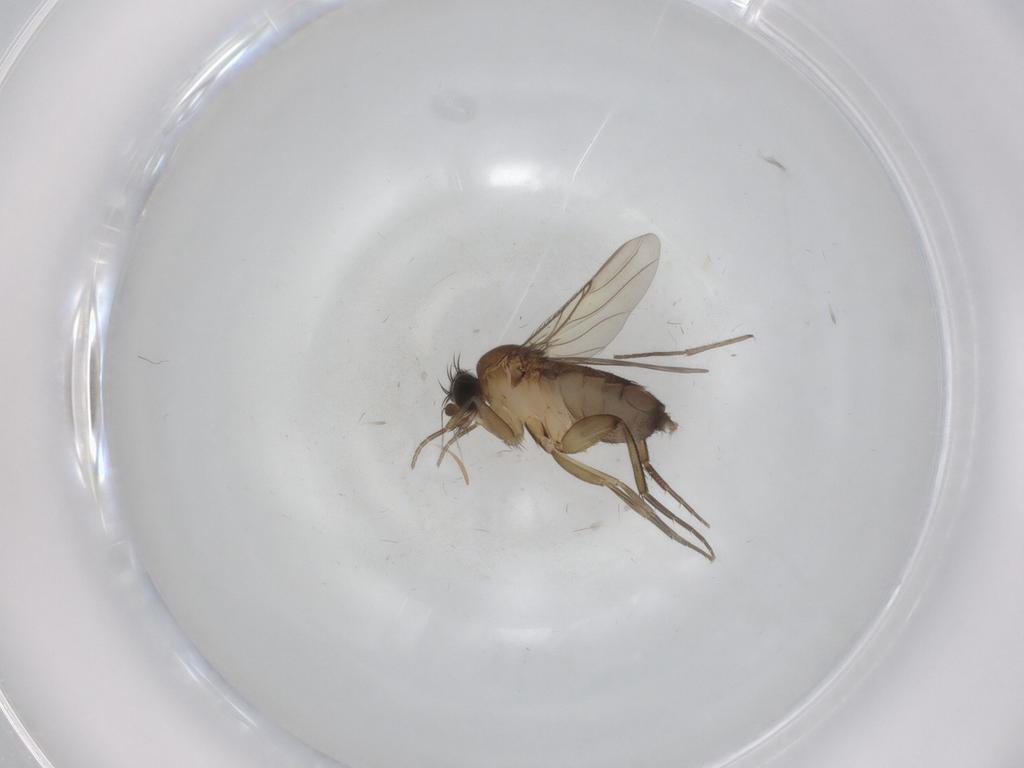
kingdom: Animalia
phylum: Arthropoda
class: Insecta
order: Diptera
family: Phoridae
